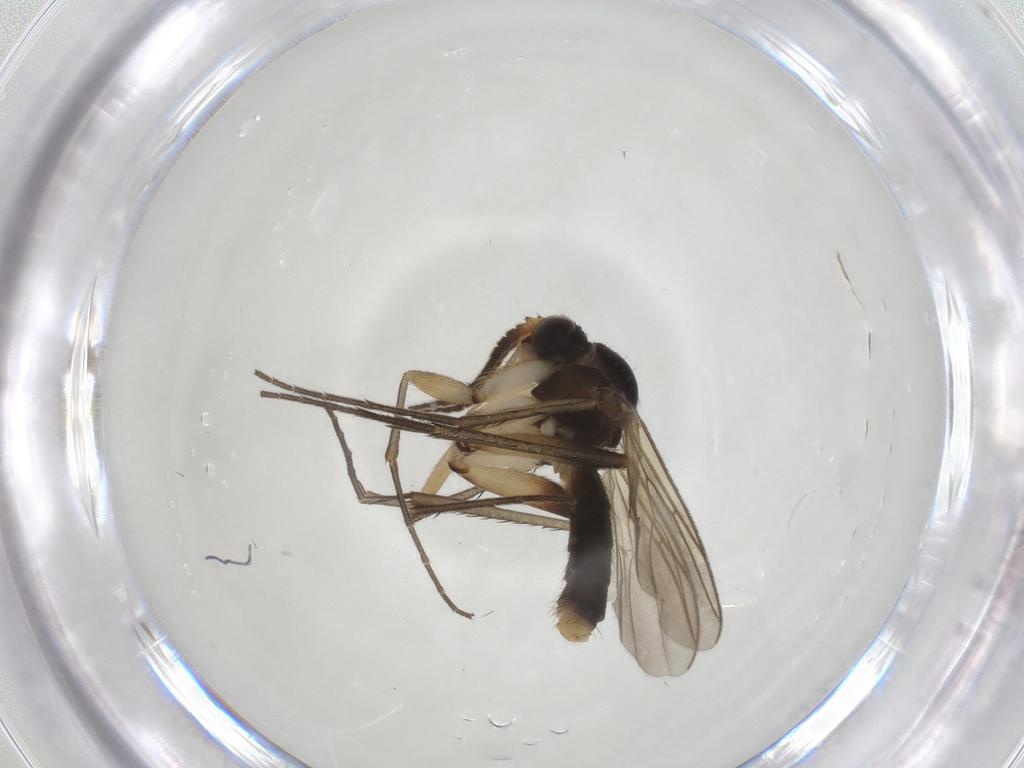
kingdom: Animalia
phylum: Arthropoda
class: Insecta
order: Diptera
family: Mycetophilidae
